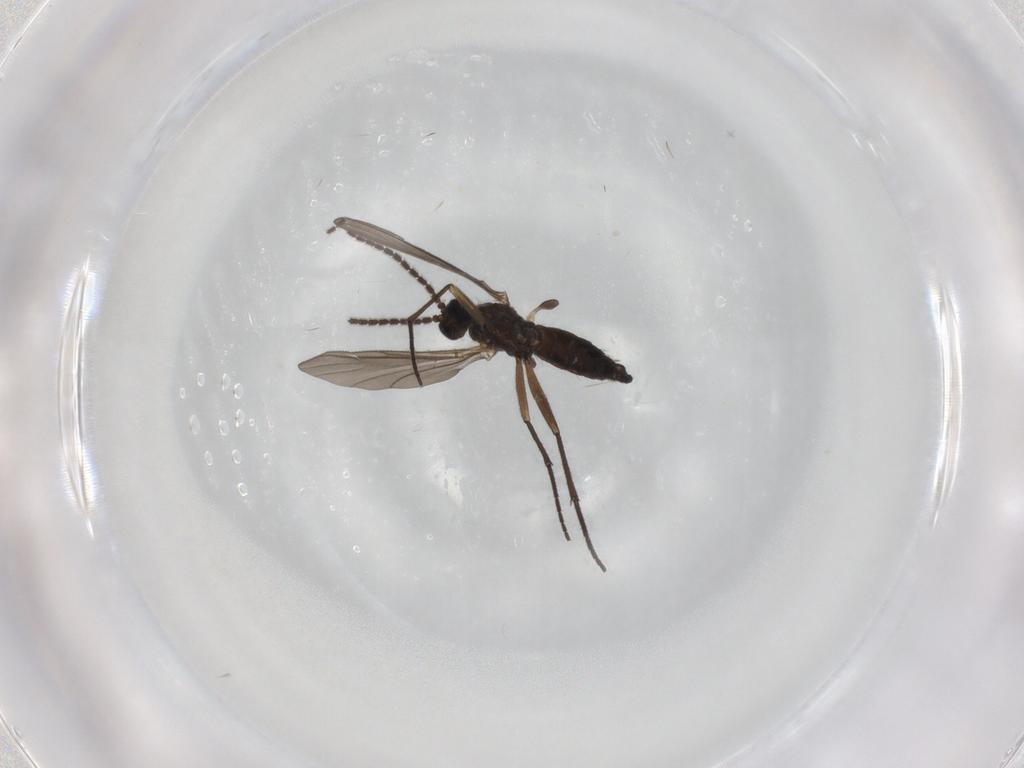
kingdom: Animalia
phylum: Arthropoda
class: Insecta
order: Diptera
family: Sciaridae
